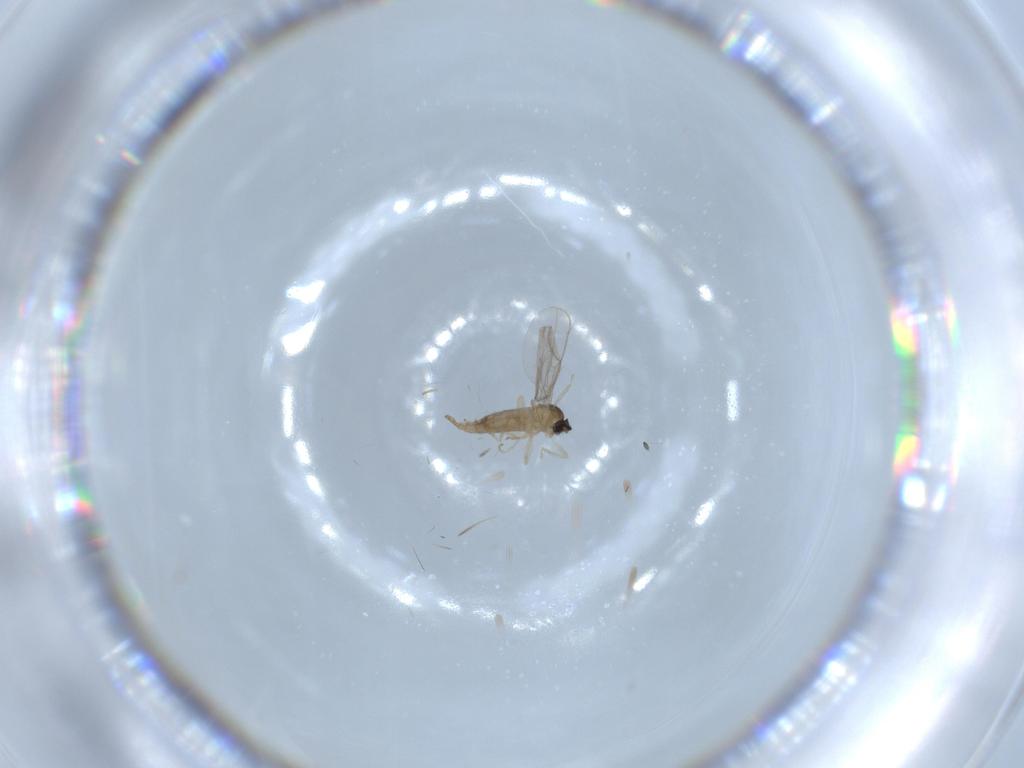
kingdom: Animalia
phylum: Arthropoda
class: Insecta
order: Diptera
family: Cecidomyiidae
